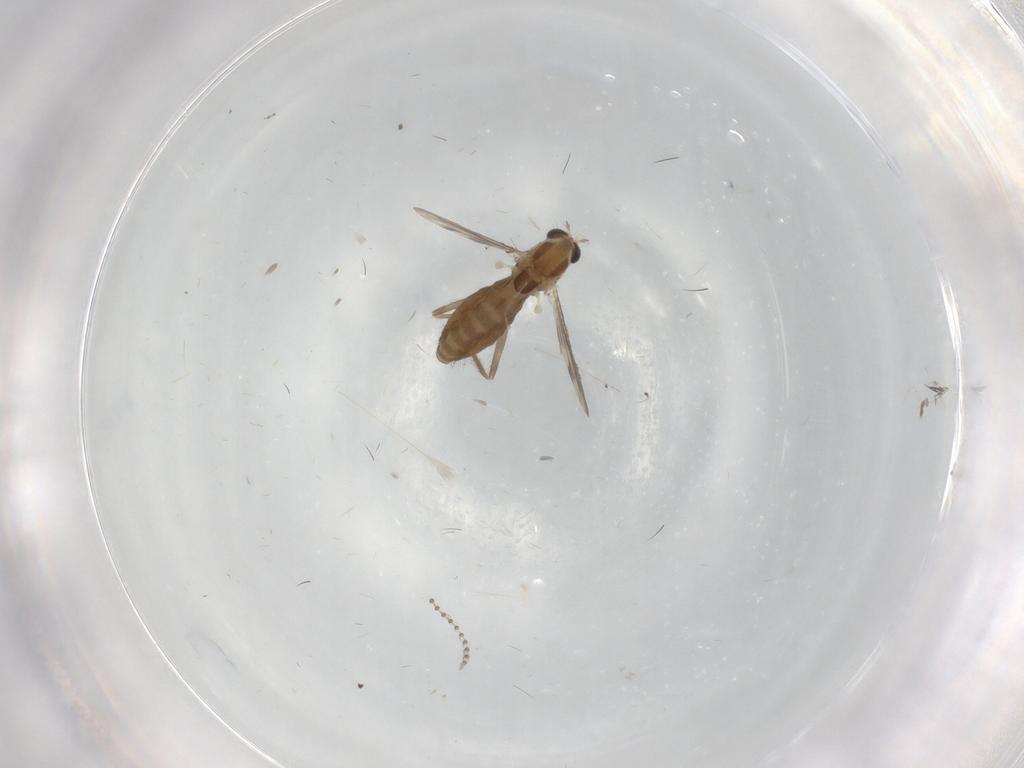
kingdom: Animalia
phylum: Arthropoda
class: Insecta
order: Diptera
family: Chironomidae
